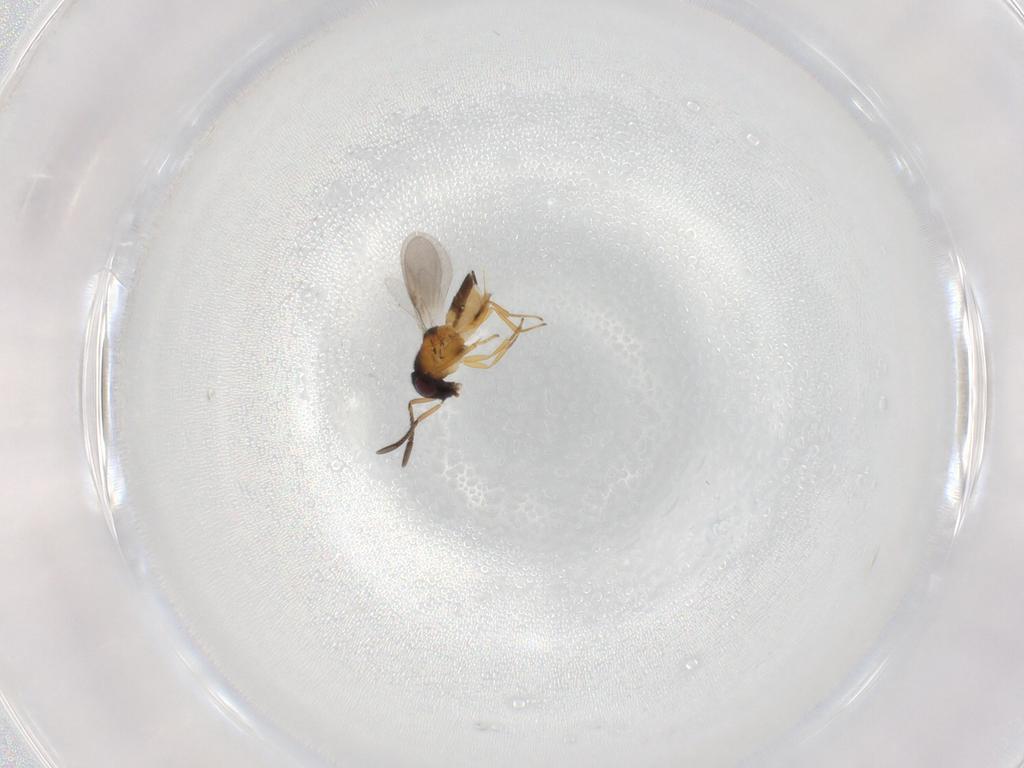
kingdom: Animalia
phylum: Arthropoda
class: Insecta
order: Hymenoptera
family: Encyrtidae
